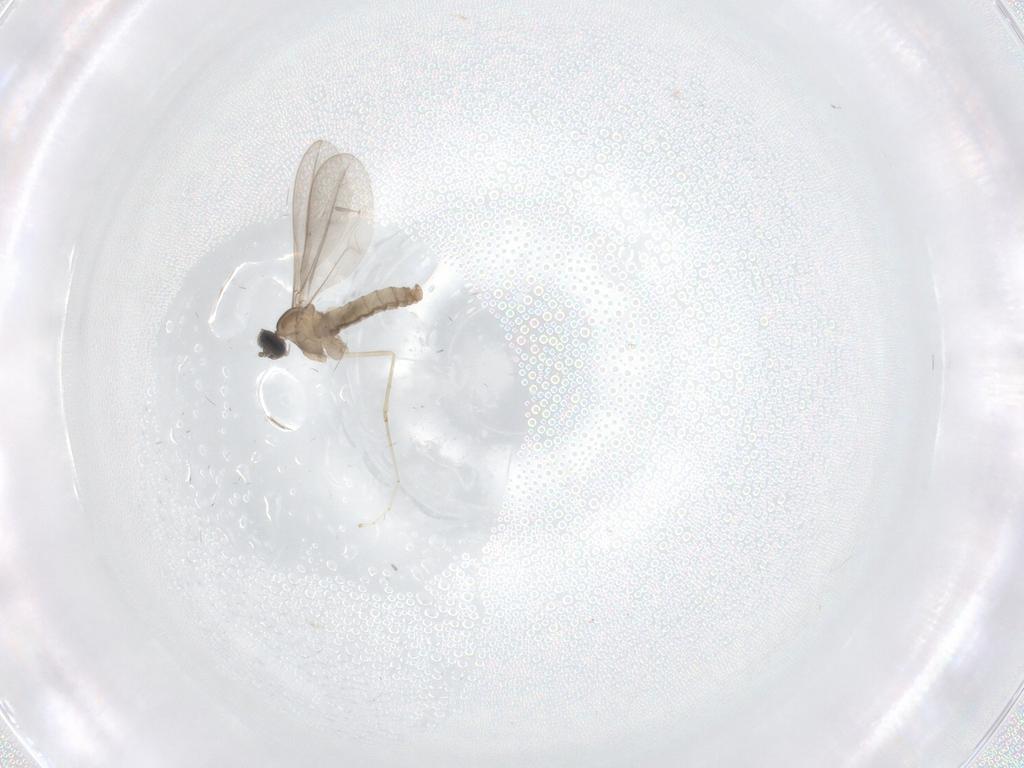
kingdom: Animalia
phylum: Arthropoda
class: Insecta
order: Diptera
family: Cecidomyiidae
